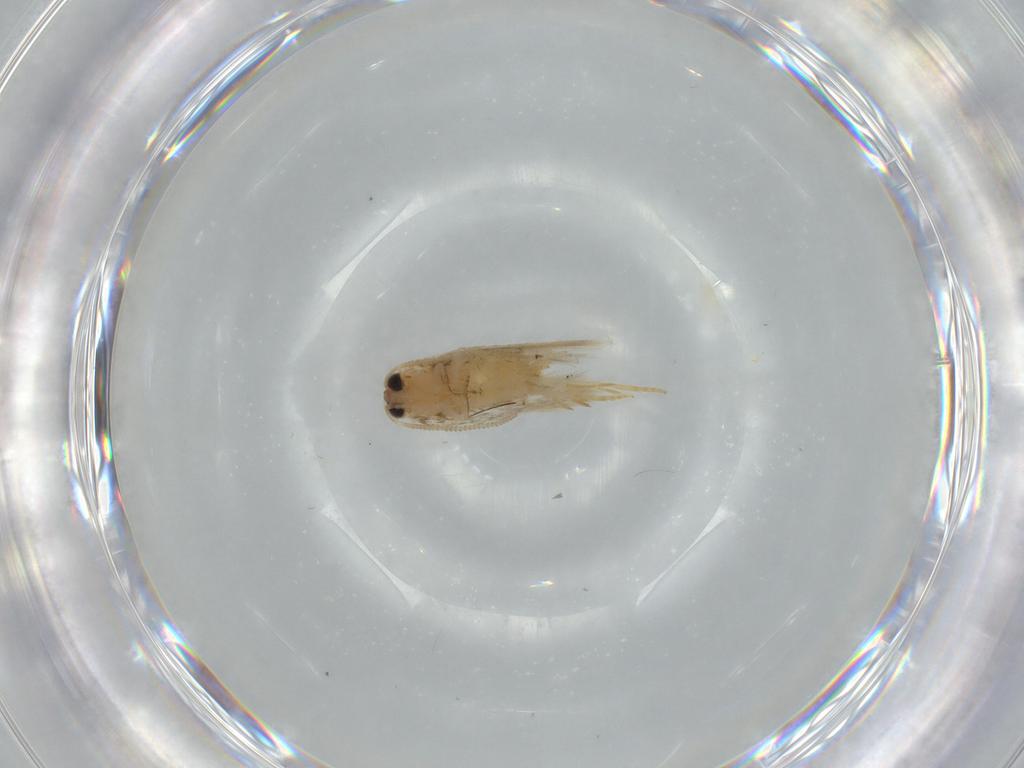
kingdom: Animalia
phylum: Arthropoda
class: Insecta
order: Lepidoptera
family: Nepticulidae
